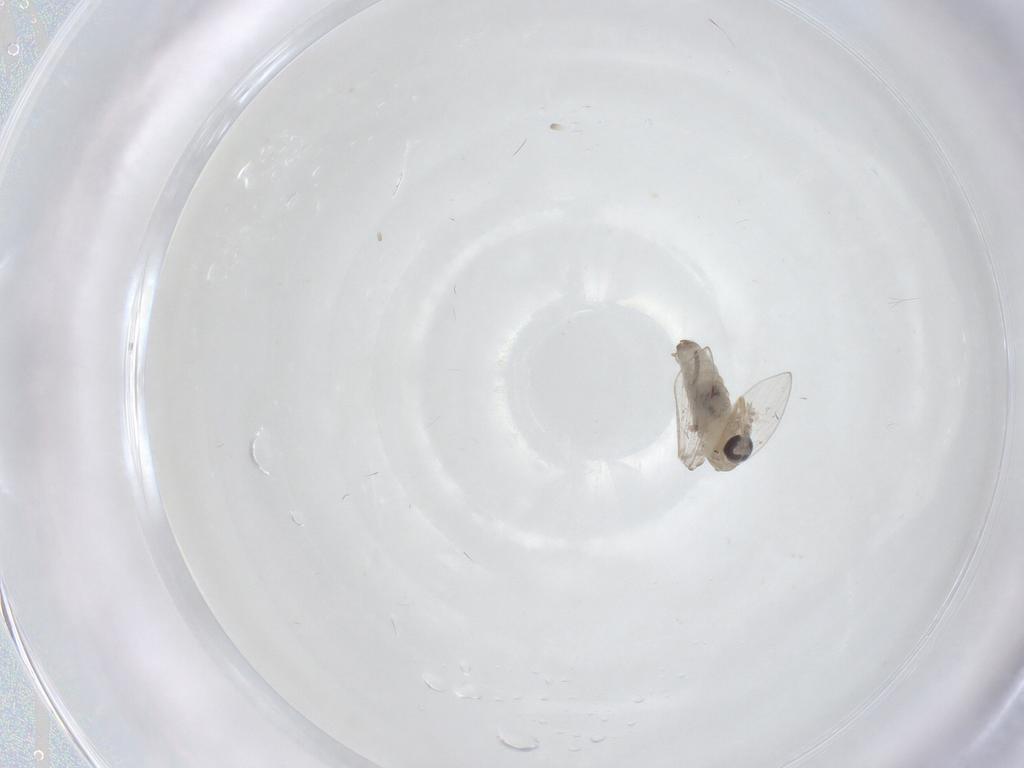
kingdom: Animalia
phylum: Arthropoda
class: Insecta
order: Diptera
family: Psychodidae
